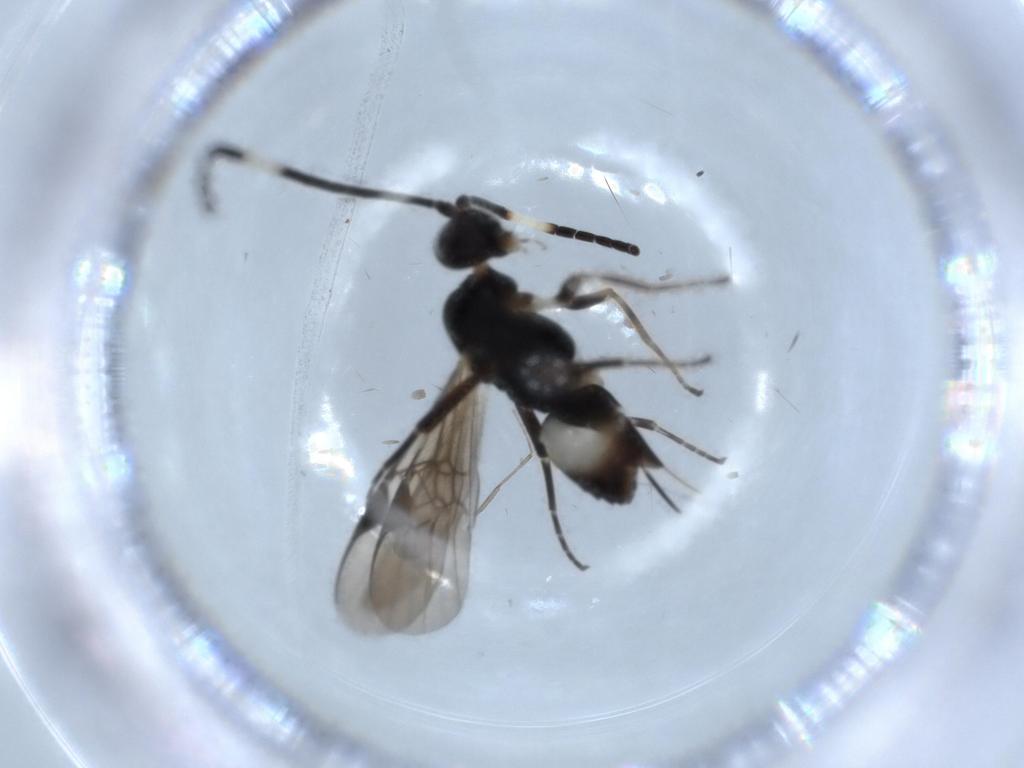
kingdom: Animalia
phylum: Arthropoda
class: Insecta
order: Lepidoptera
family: Tortricidae
